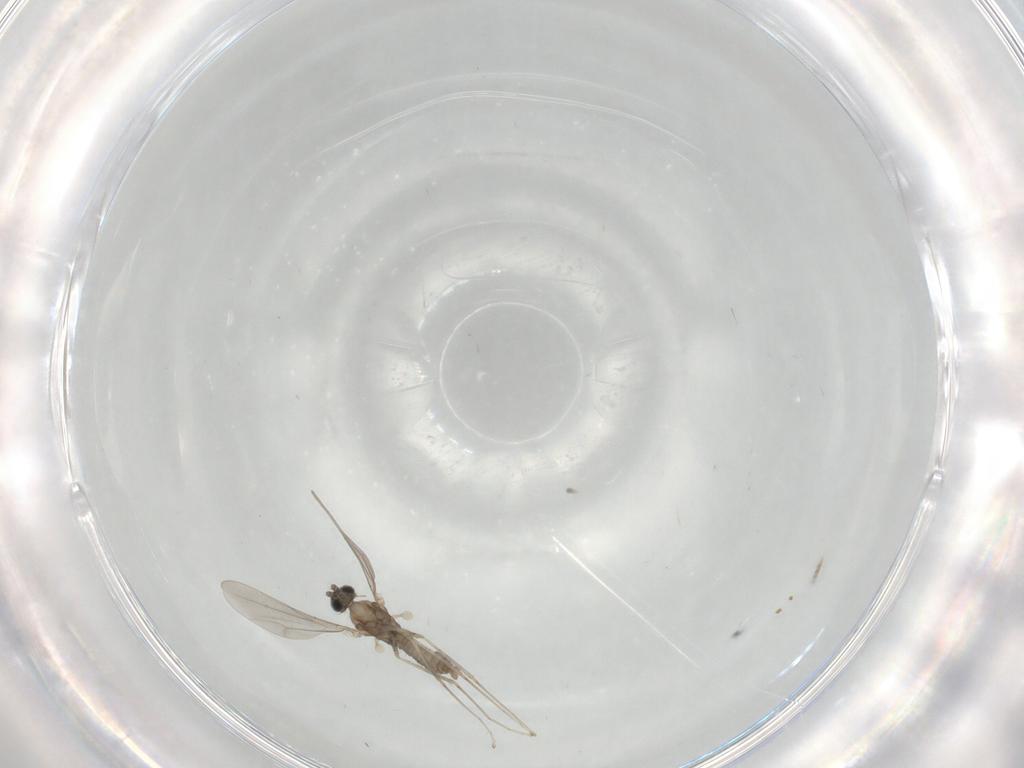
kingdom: Animalia
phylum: Arthropoda
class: Insecta
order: Diptera
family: Cecidomyiidae
